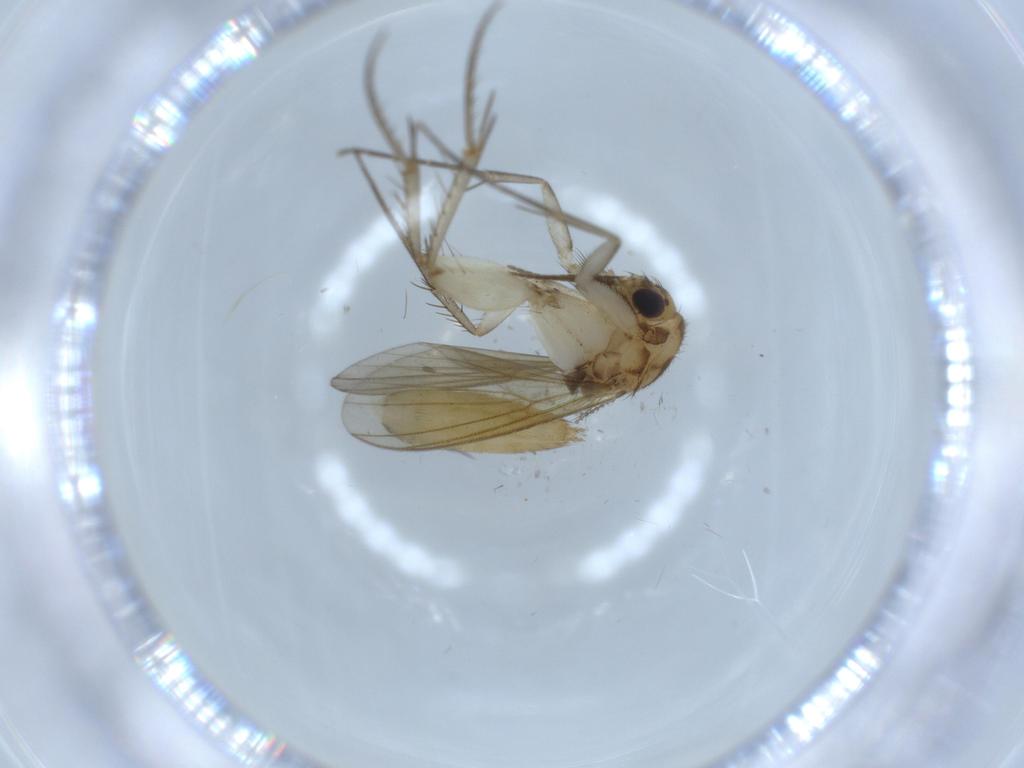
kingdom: Animalia
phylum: Arthropoda
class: Insecta
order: Diptera
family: Mycetophilidae
